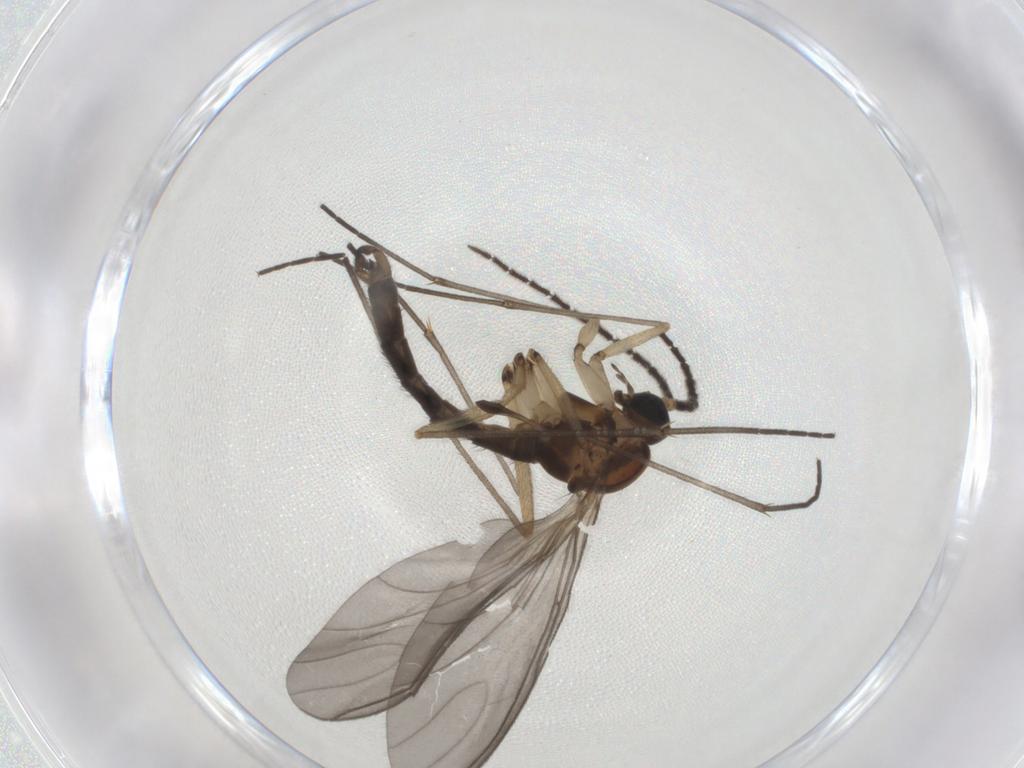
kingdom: Animalia
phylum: Arthropoda
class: Insecta
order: Diptera
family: Sciaridae
